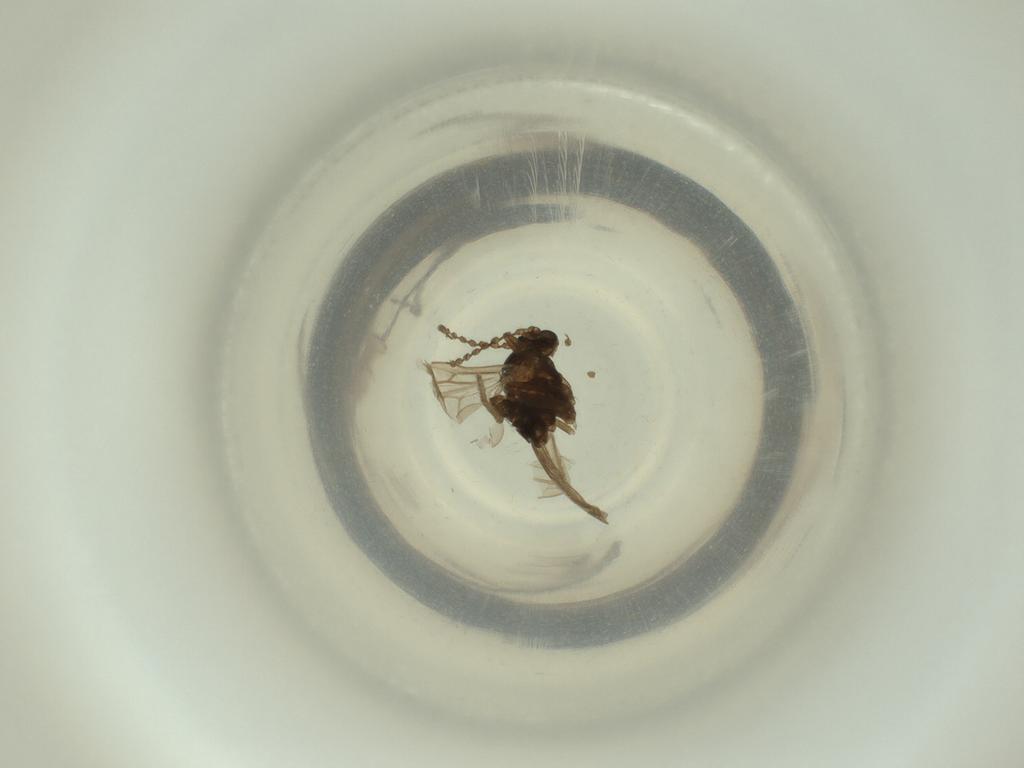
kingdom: Animalia
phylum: Arthropoda
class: Insecta
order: Diptera
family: Cecidomyiidae
